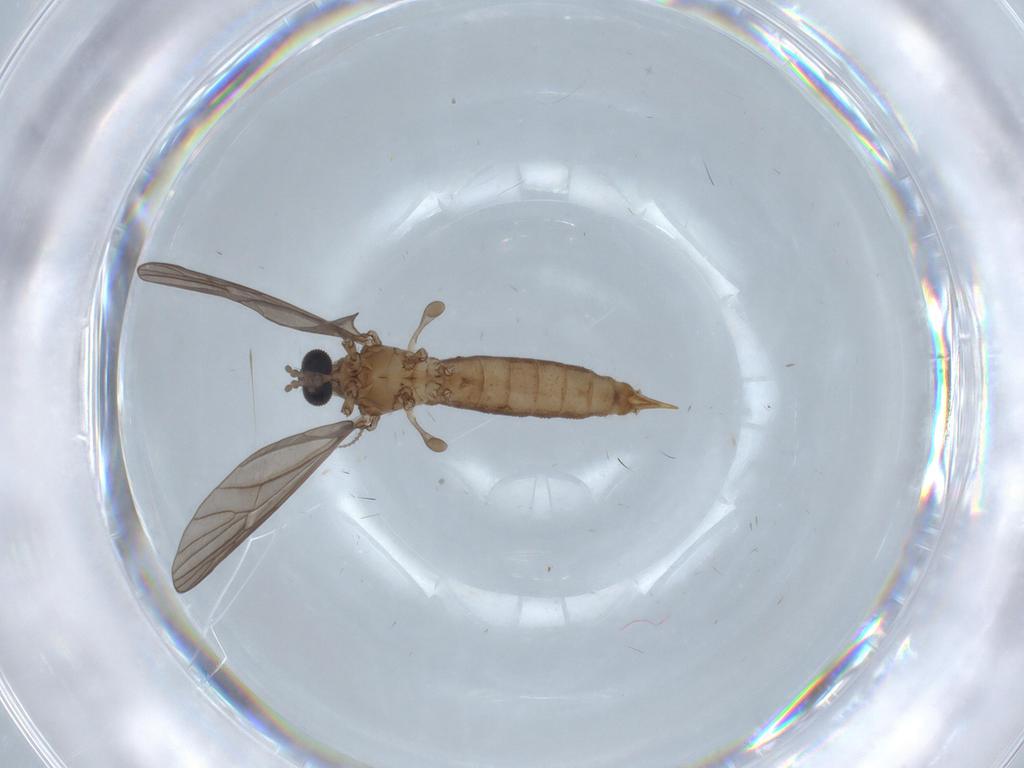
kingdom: Animalia
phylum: Arthropoda
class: Insecta
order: Diptera
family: Limoniidae
